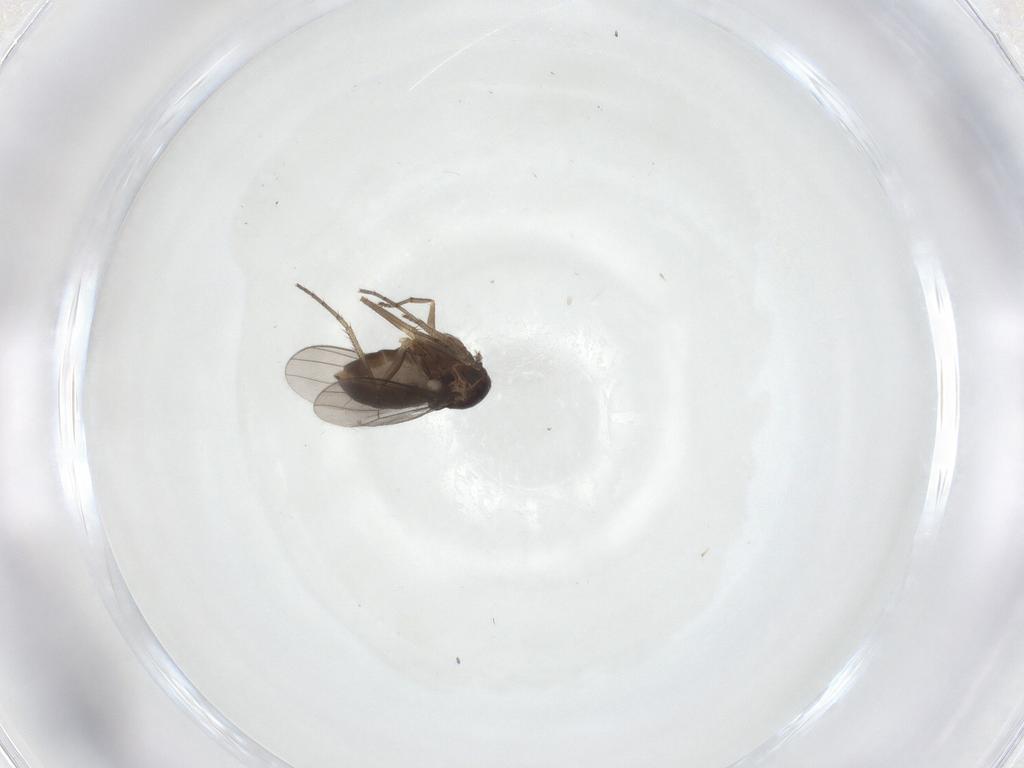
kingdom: Animalia
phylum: Arthropoda
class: Insecta
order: Diptera
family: Dolichopodidae
